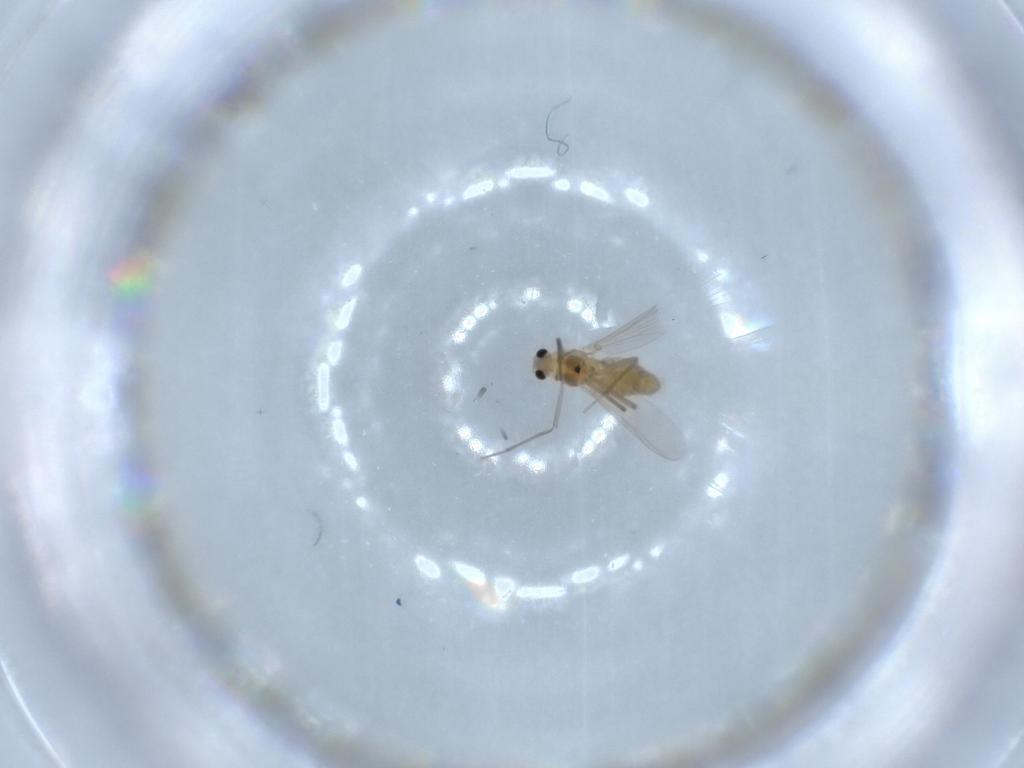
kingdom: Animalia
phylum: Arthropoda
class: Insecta
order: Diptera
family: Chironomidae
